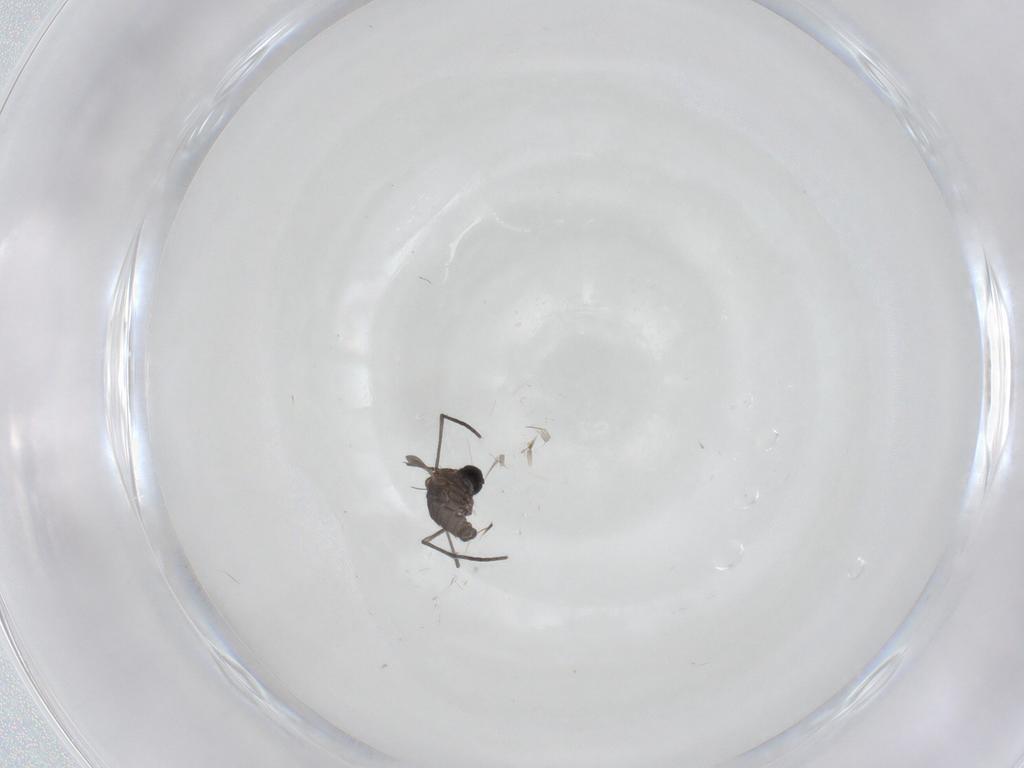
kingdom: Animalia
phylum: Arthropoda
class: Insecta
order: Diptera
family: Sciaridae
